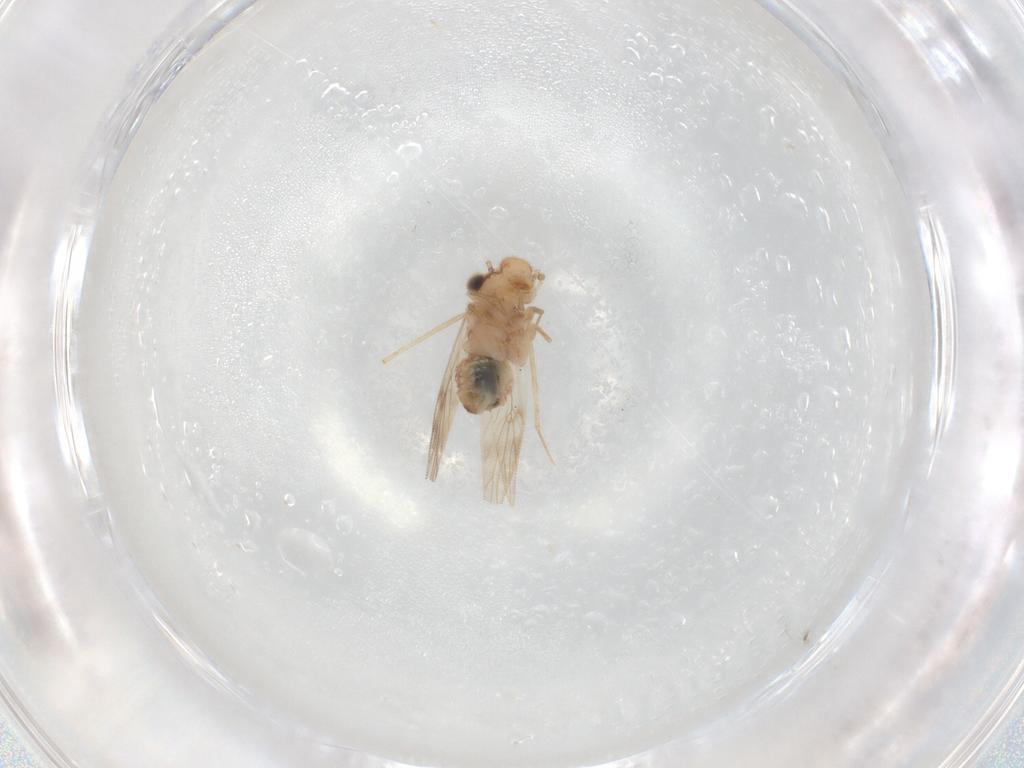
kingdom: Animalia
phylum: Arthropoda
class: Insecta
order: Psocodea
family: Lepidopsocidae
